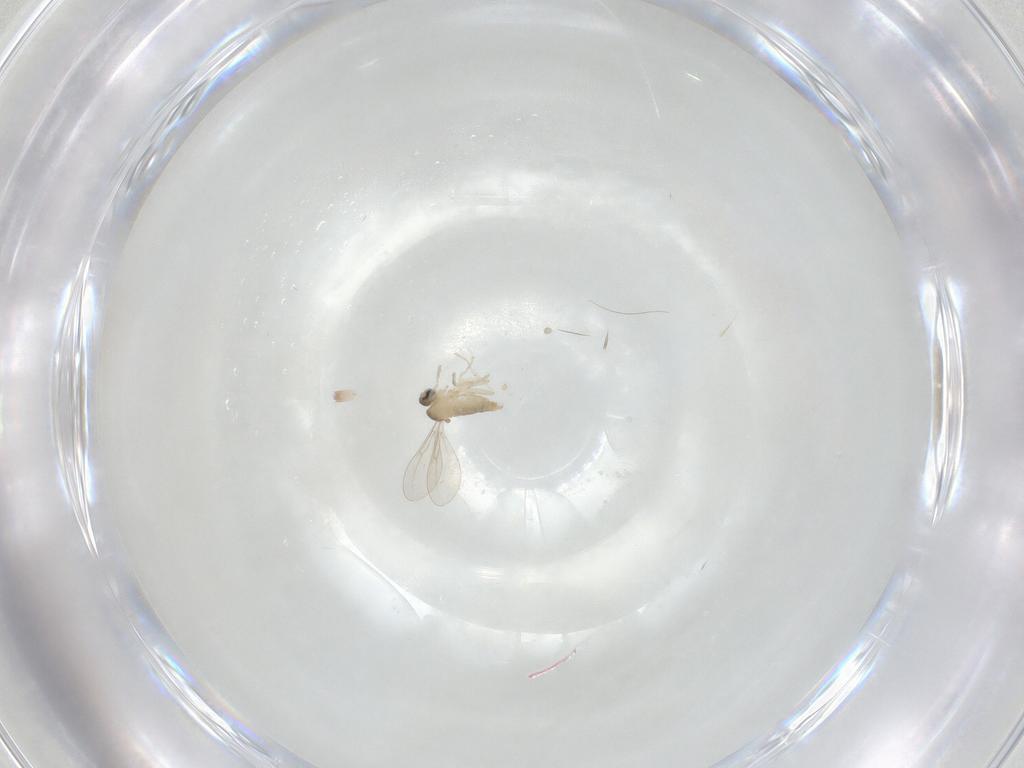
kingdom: Animalia
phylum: Arthropoda
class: Insecta
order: Diptera
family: Cecidomyiidae
